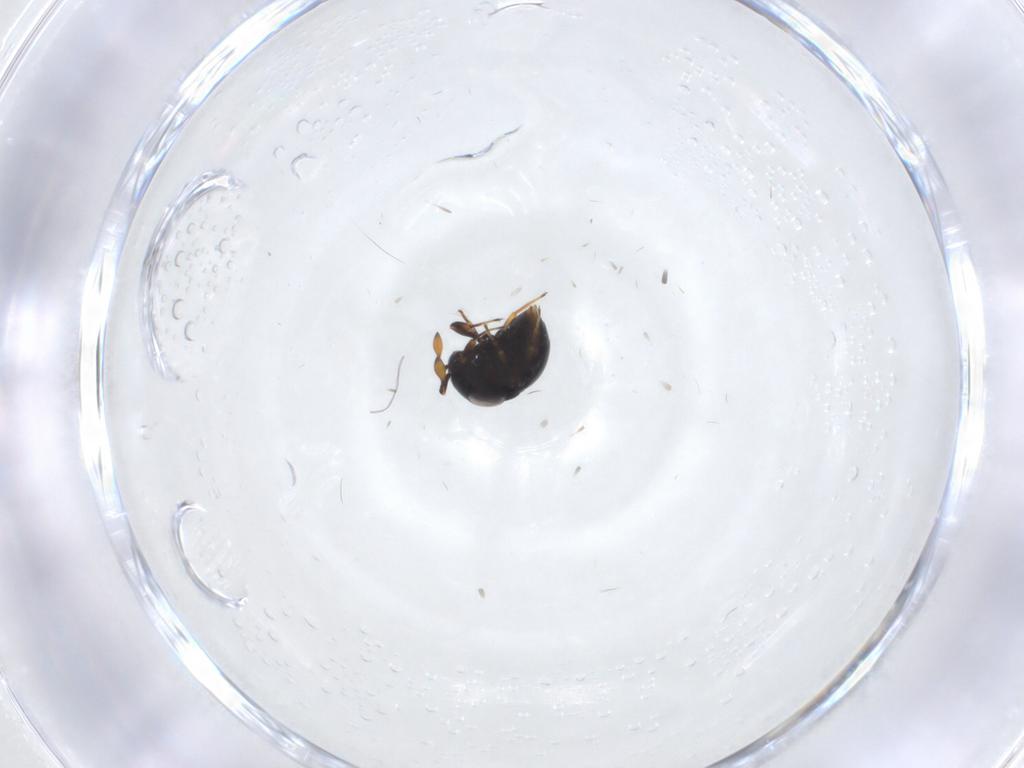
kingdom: Animalia
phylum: Arthropoda
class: Insecta
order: Hymenoptera
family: Scelionidae
